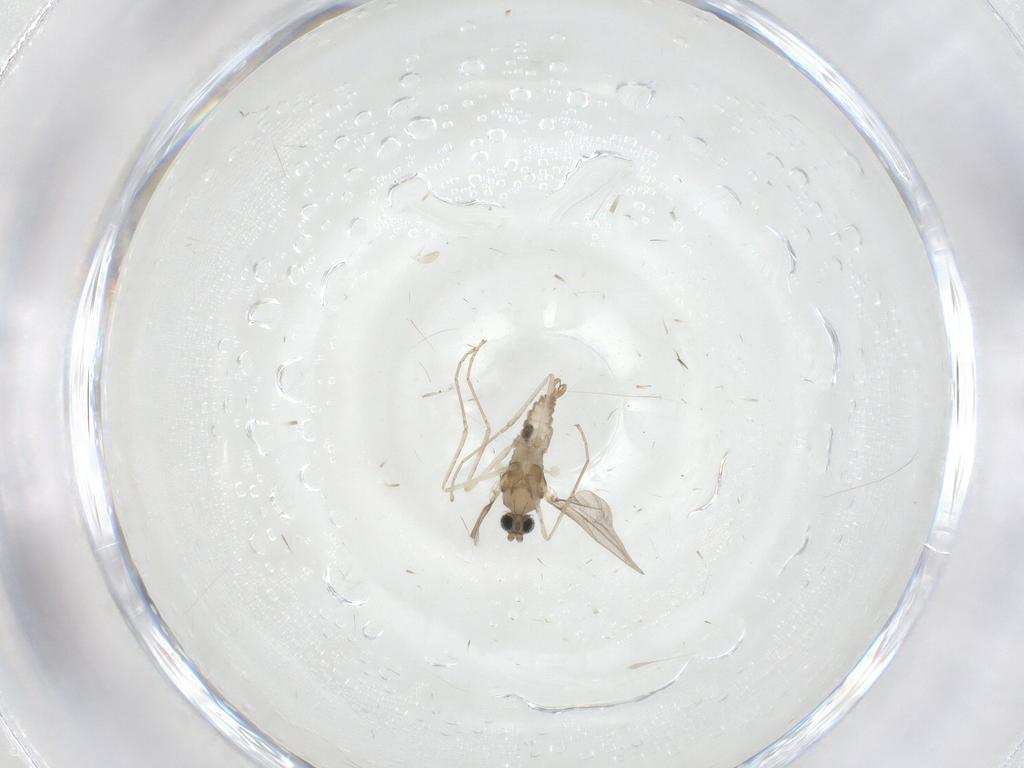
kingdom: Animalia
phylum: Arthropoda
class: Insecta
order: Diptera
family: Cecidomyiidae
